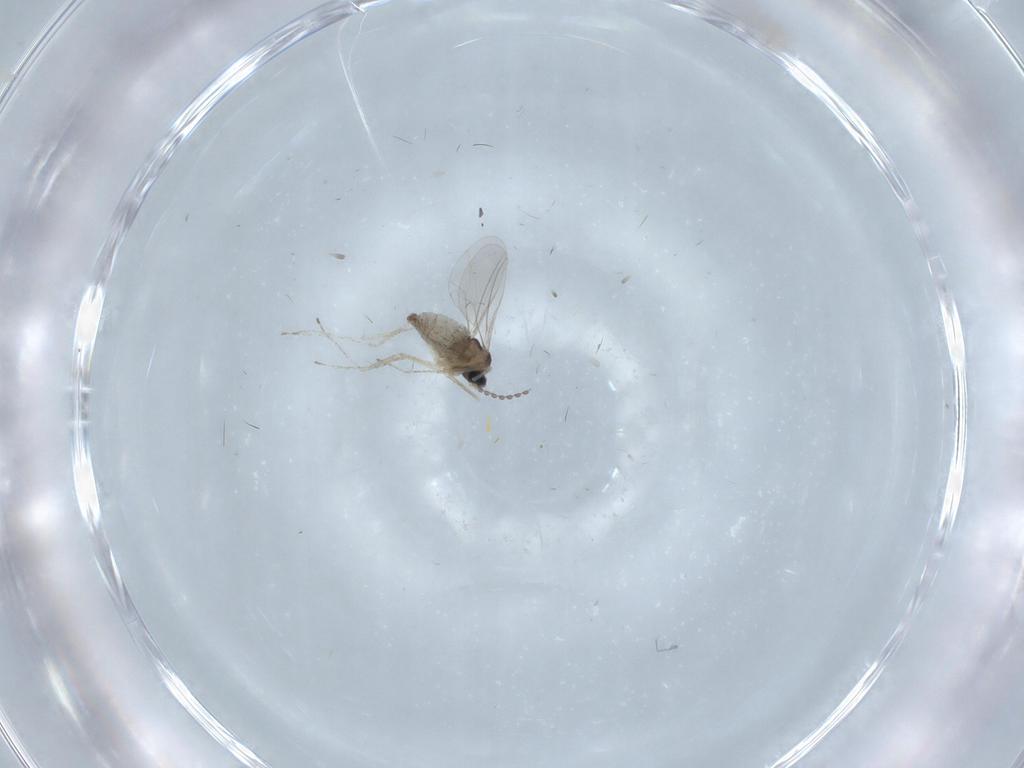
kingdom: Animalia
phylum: Arthropoda
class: Insecta
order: Diptera
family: Cecidomyiidae
